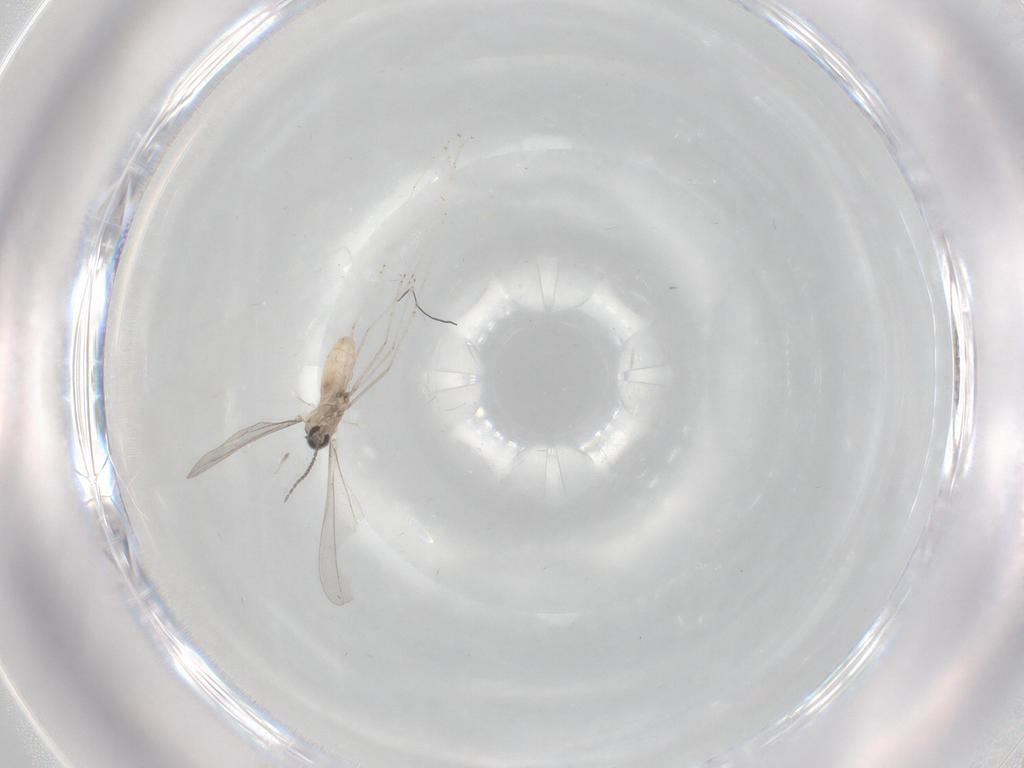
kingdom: Animalia
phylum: Arthropoda
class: Insecta
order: Diptera
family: Cecidomyiidae
